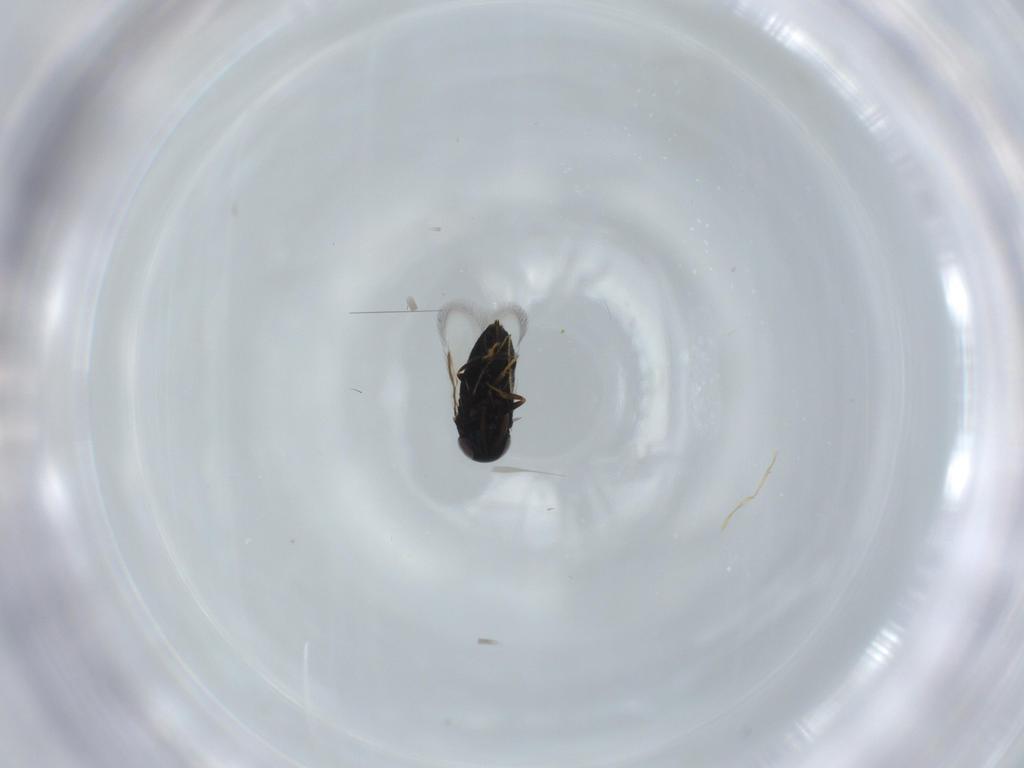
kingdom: Animalia
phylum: Arthropoda
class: Insecta
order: Hymenoptera
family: Signiphoridae
